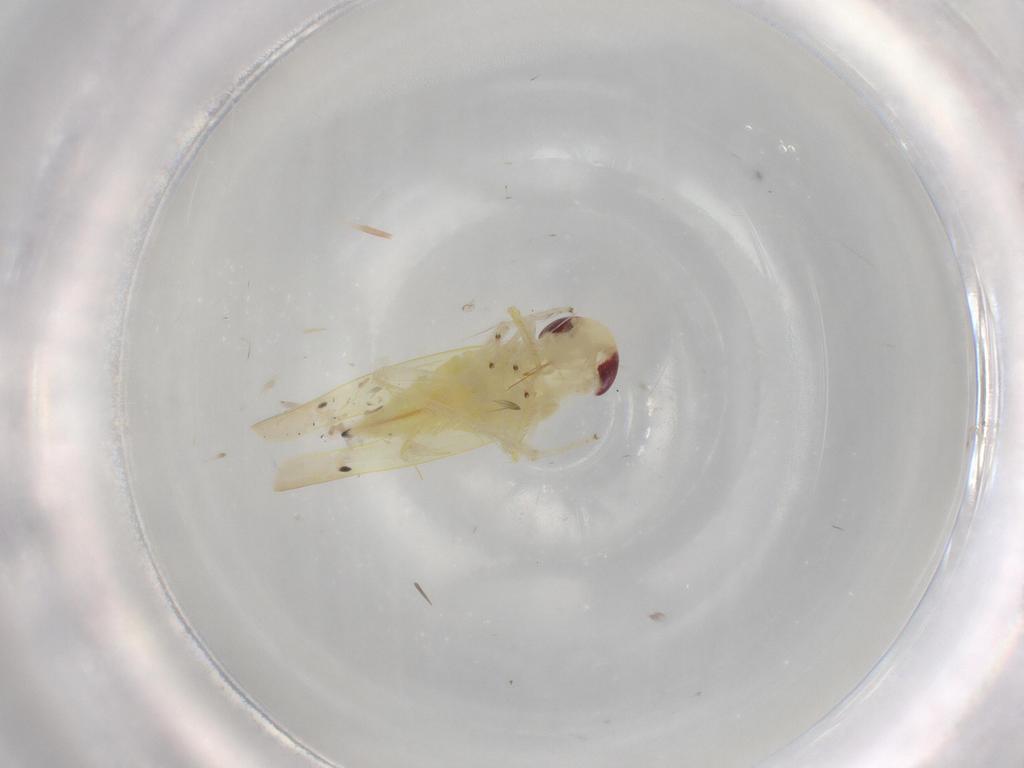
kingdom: Animalia
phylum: Arthropoda
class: Insecta
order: Hemiptera
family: Cicadellidae
